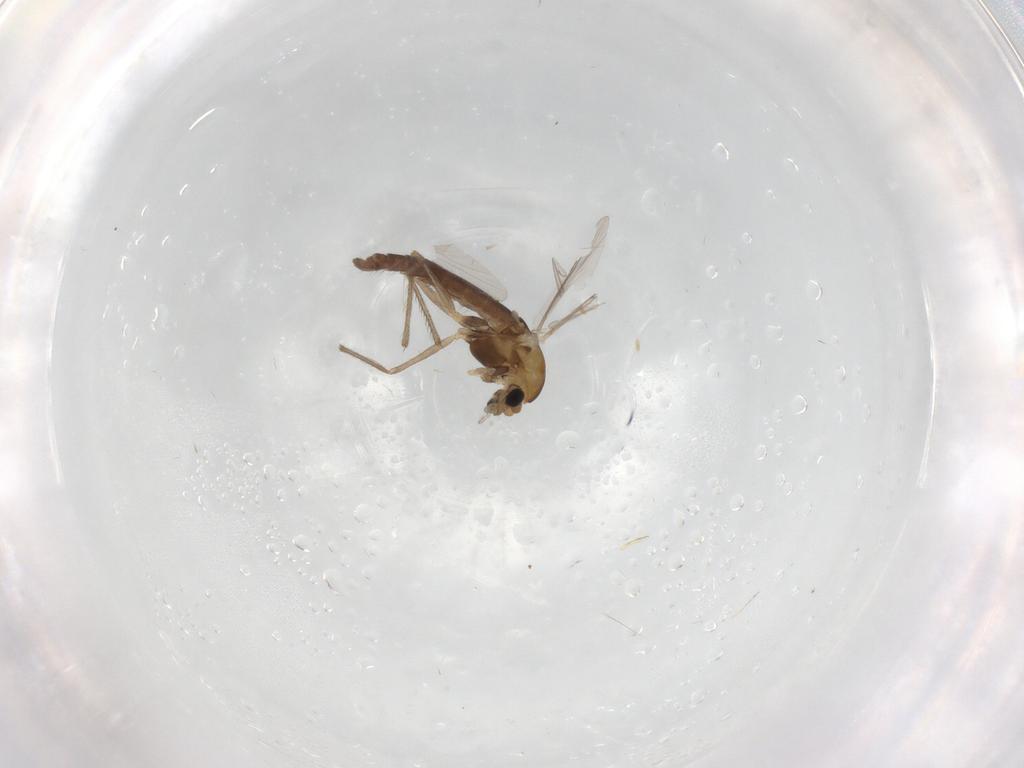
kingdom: Animalia
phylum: Arthropoda
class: Insecta
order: Diptera
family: Chironomidae
